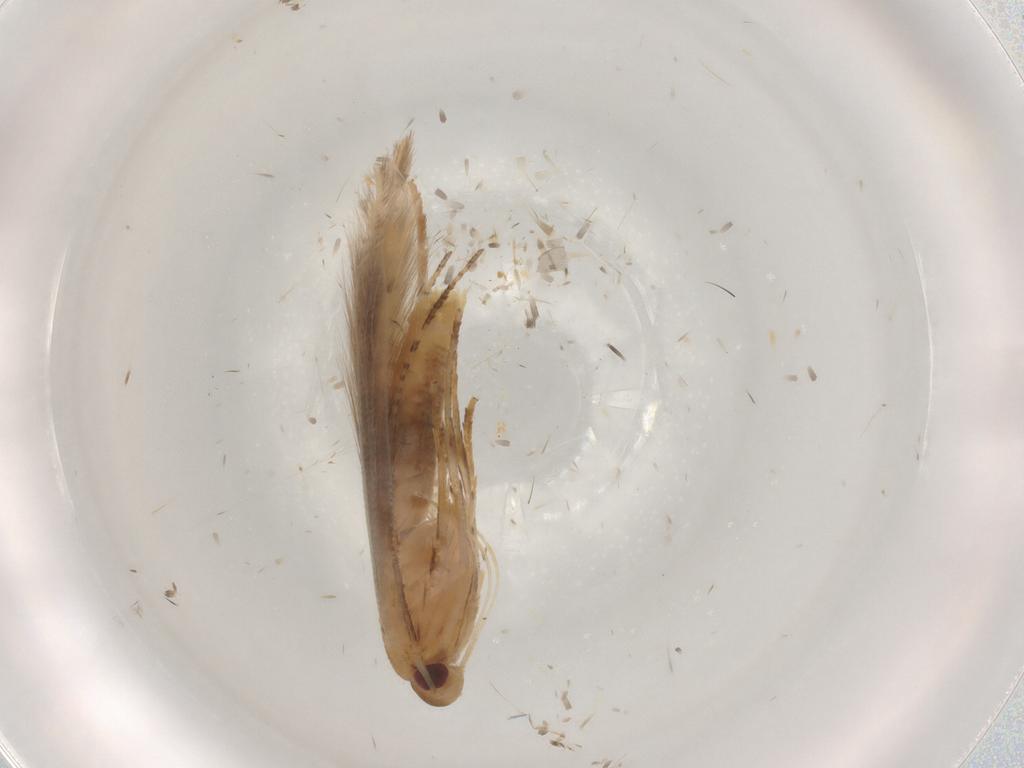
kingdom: Animalia
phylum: Arthropoda
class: Insecta
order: Lepidoptera
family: Cosmopterigidae
